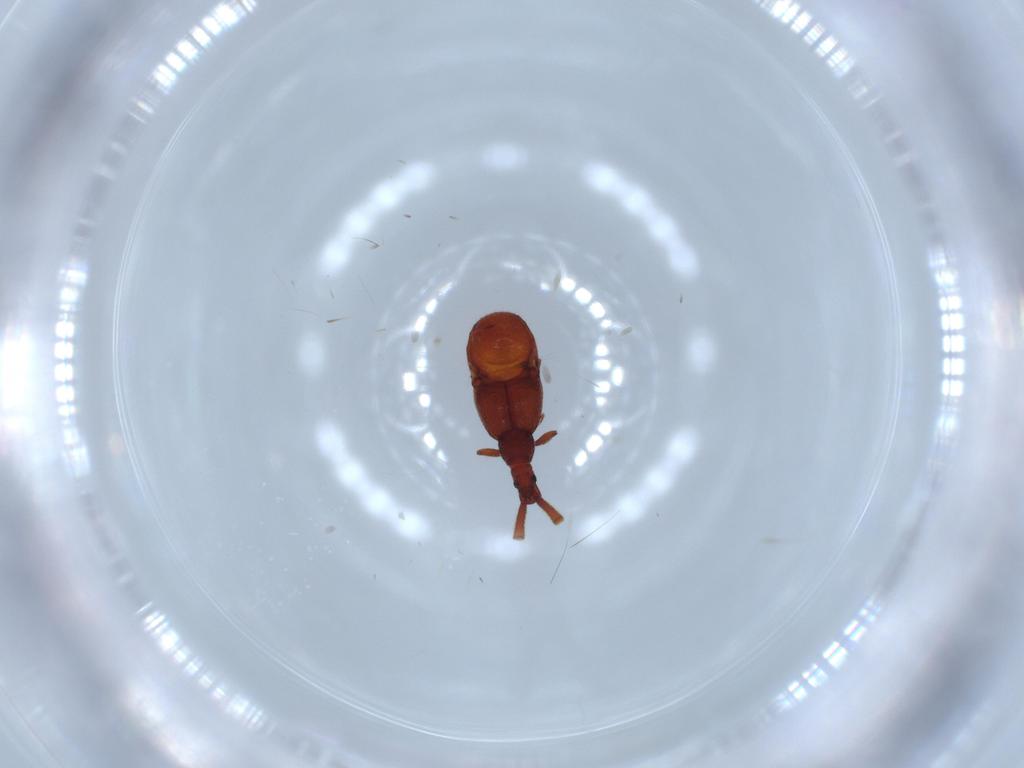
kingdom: Animalia
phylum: Arthropoda
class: Insecta
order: Coleoptera
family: Staphylinidae
